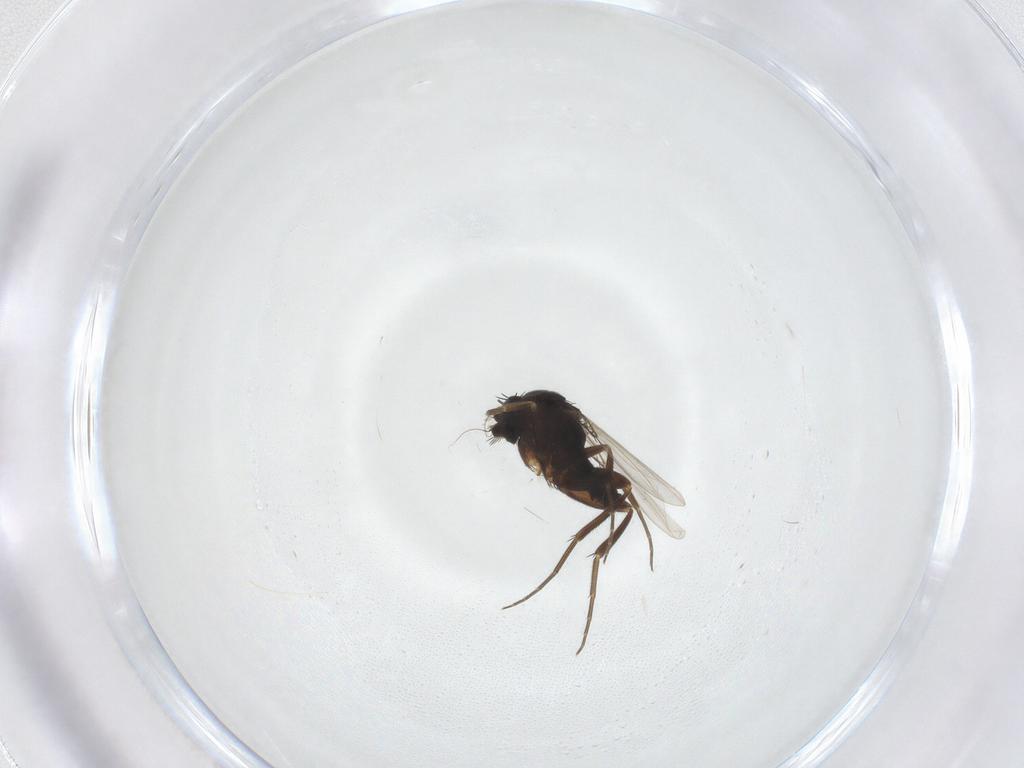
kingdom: Animalia
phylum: Arthropoda
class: Insecta
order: Diptera
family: Phoridae
